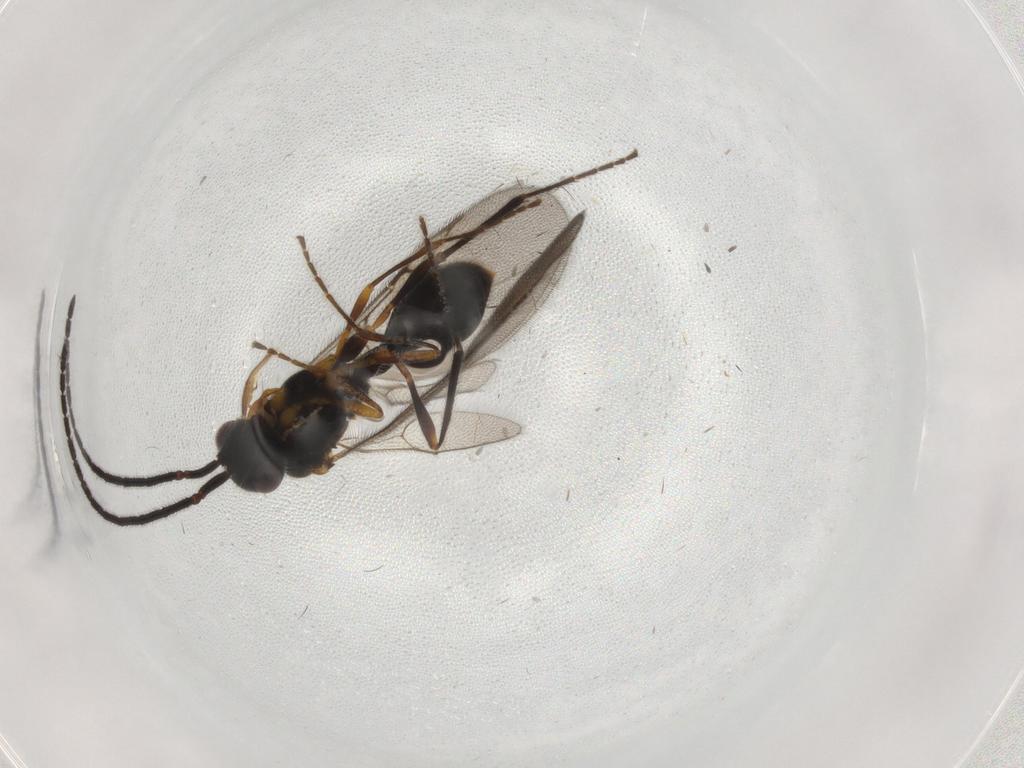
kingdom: Animalia
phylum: Arthropoda
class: Insecta
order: Hymenoptera
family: Diapriidae
